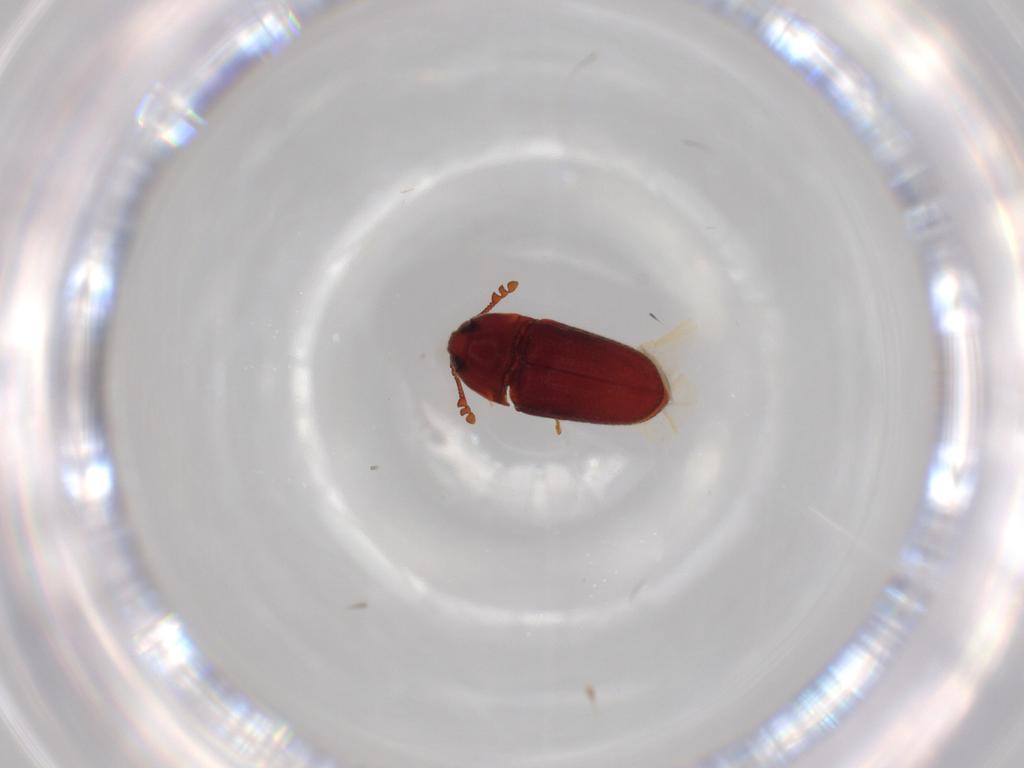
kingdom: Animalia
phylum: Arthropoda
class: Insecta
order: Coleoptera
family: Throscidae
